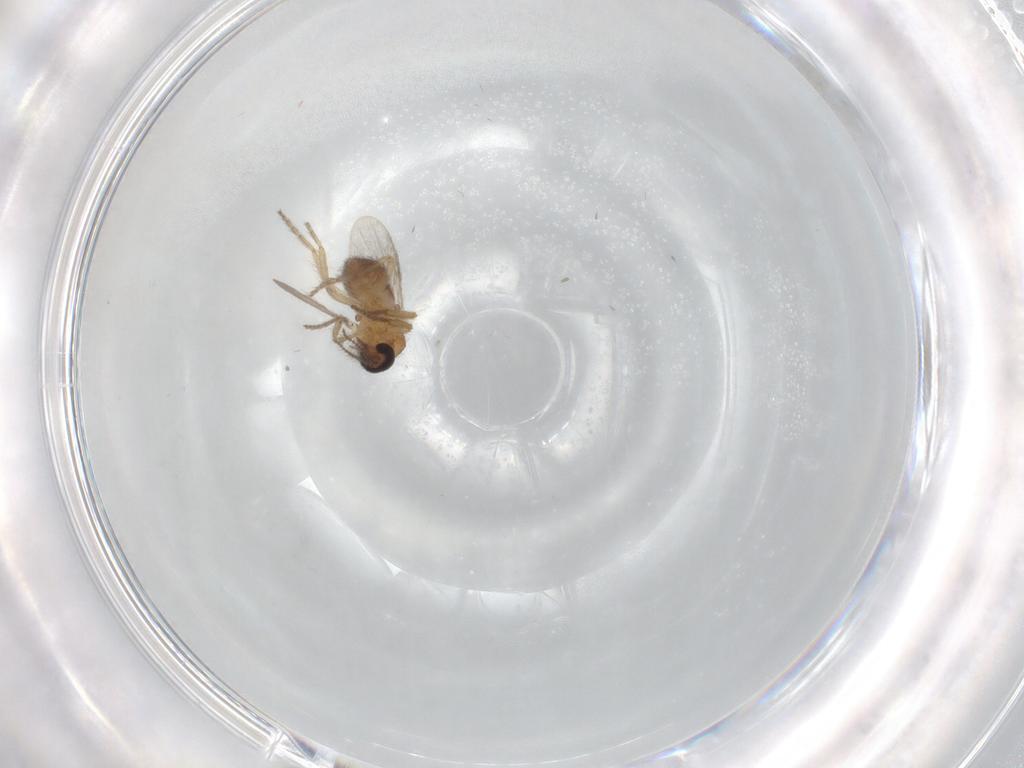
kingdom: Animalia
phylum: Arthropoda
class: Insecta
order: Diptera
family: Ceratopogonidae
